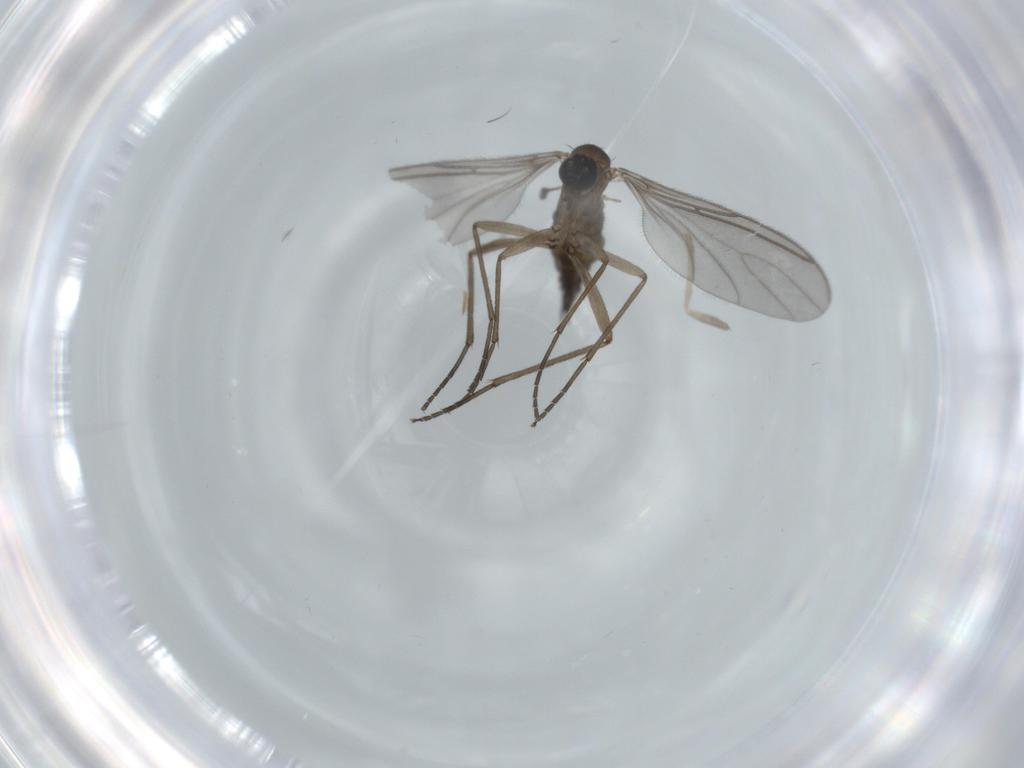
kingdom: Animalia
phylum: Arthropoda
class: Insecta
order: Diptera
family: Sciaridae
